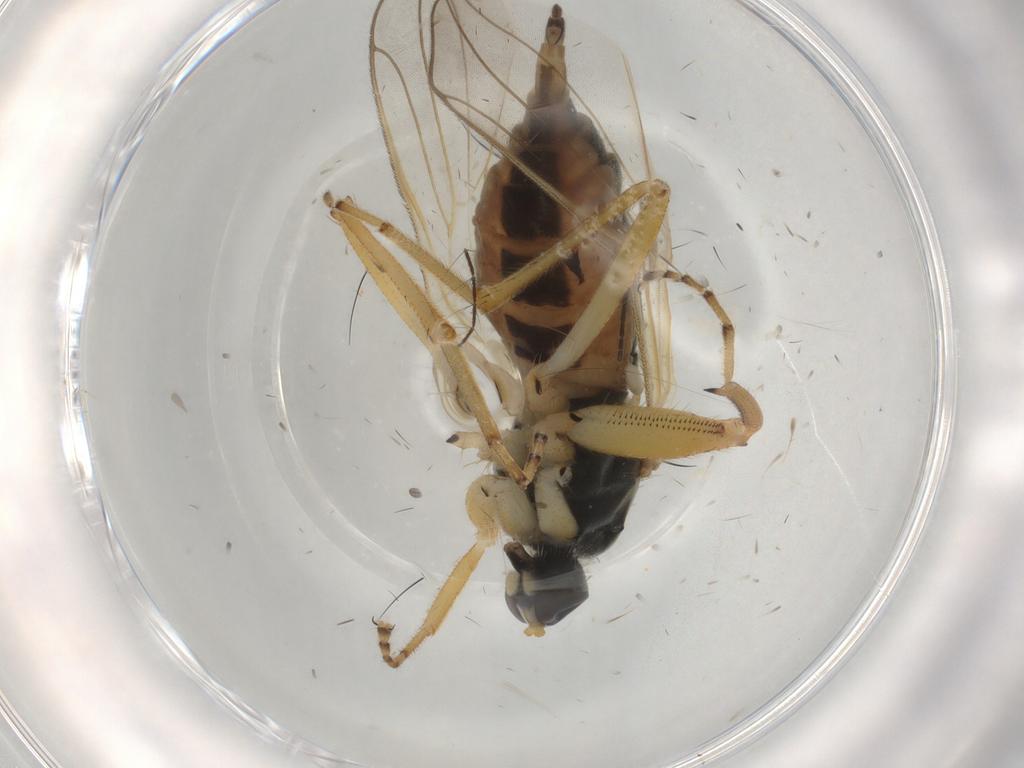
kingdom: Animalia
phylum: Arthropoda
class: Insecta
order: Diptera
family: Hybotidae
